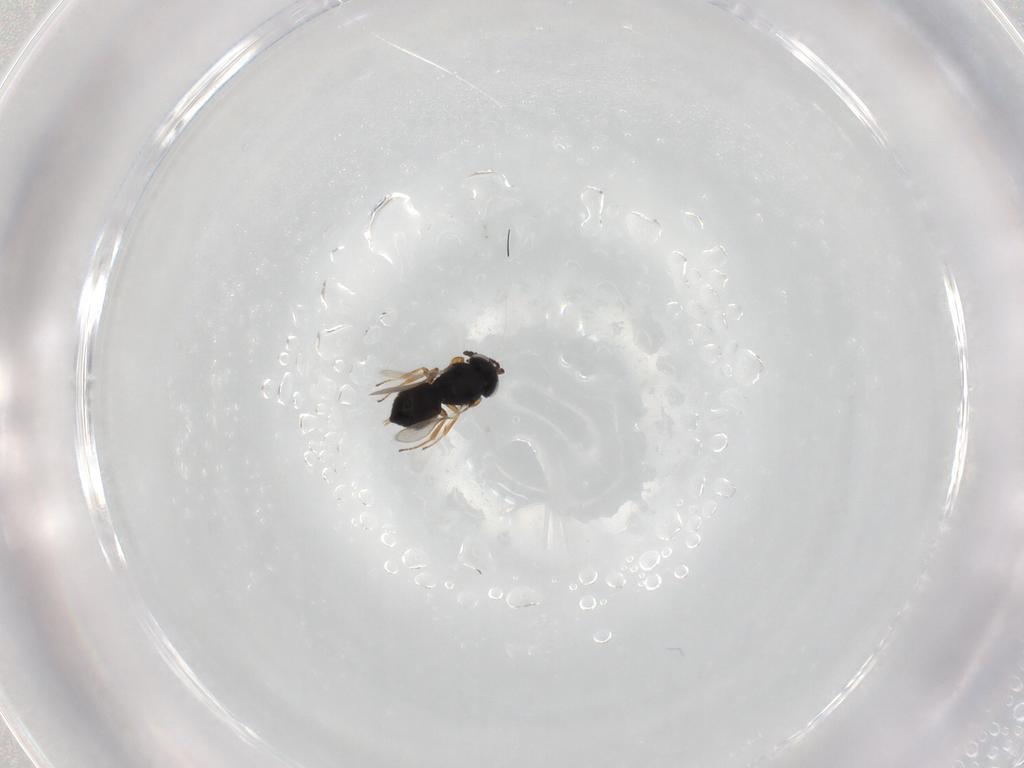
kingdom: Animalia
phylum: Arthropoda
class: Insecta
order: Hymenoptera
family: Scelionidae
